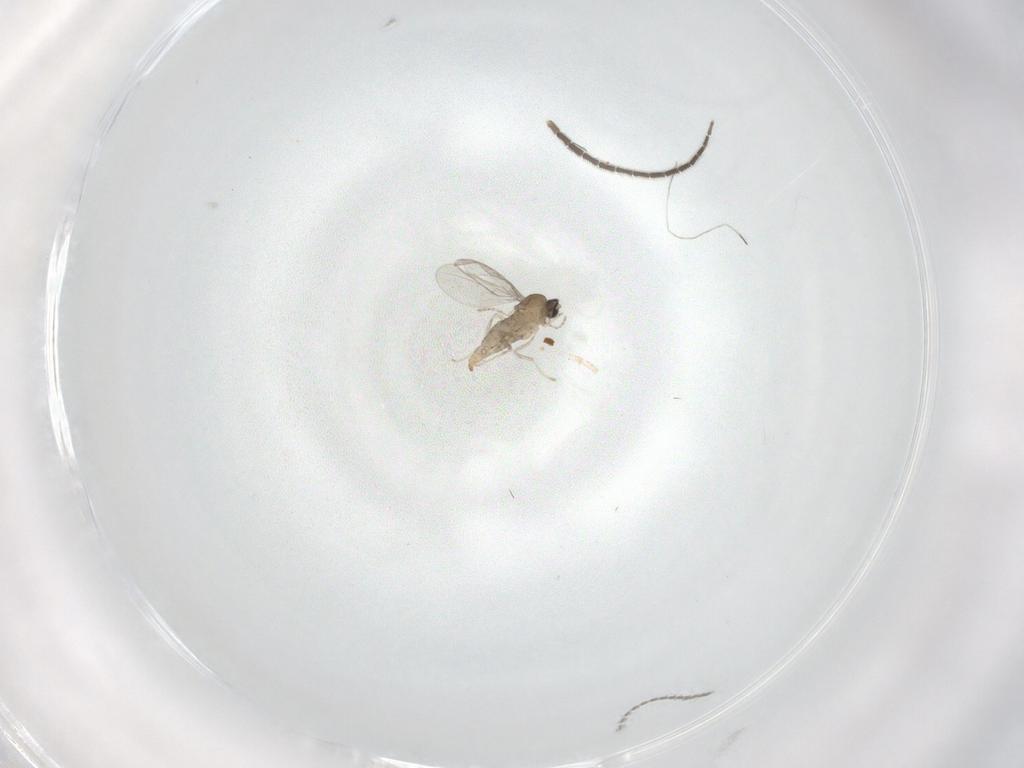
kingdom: Animalia
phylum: Arthropoda
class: Insecta
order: Diptera
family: Cecidomyiidae
